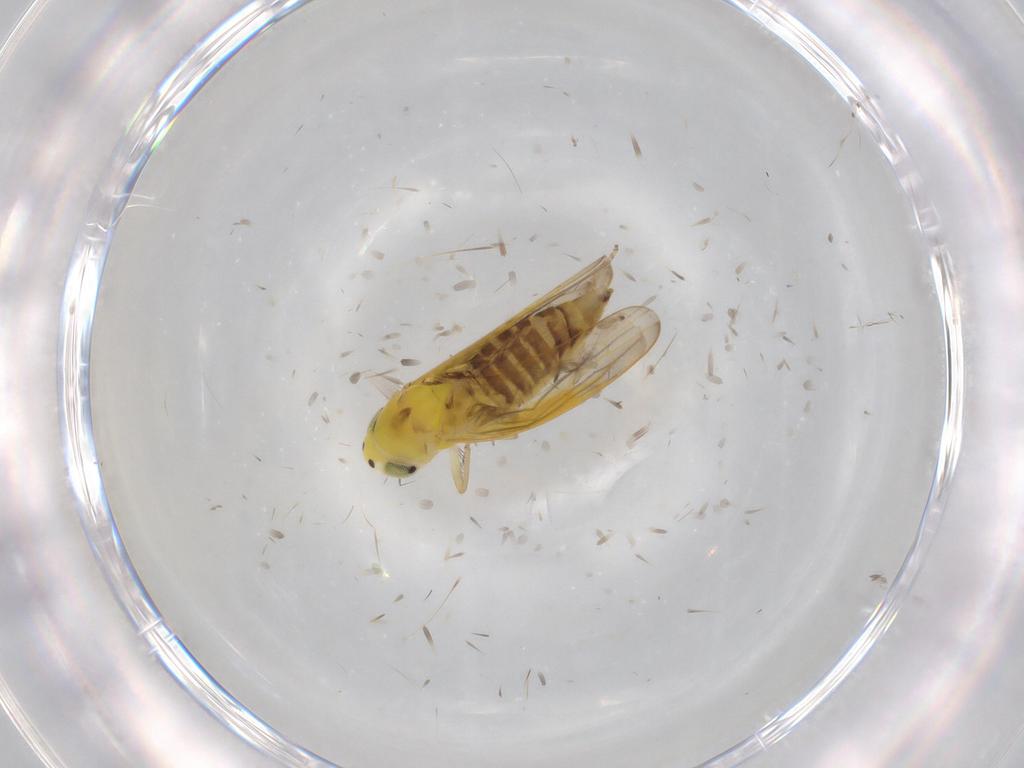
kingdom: Animalia
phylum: Arthropoda
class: Insecta
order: Hemiptera
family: Cicadellidae
